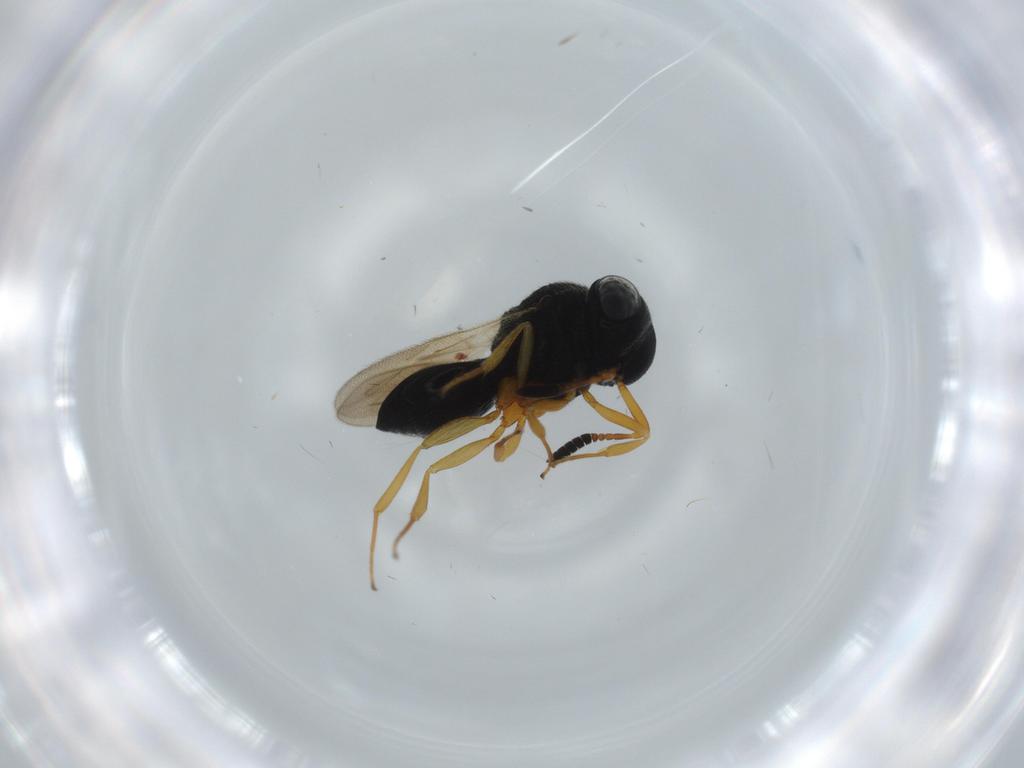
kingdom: Animalia
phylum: Arthropoda
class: Insecta
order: Hymenoptera
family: Scelionidae
